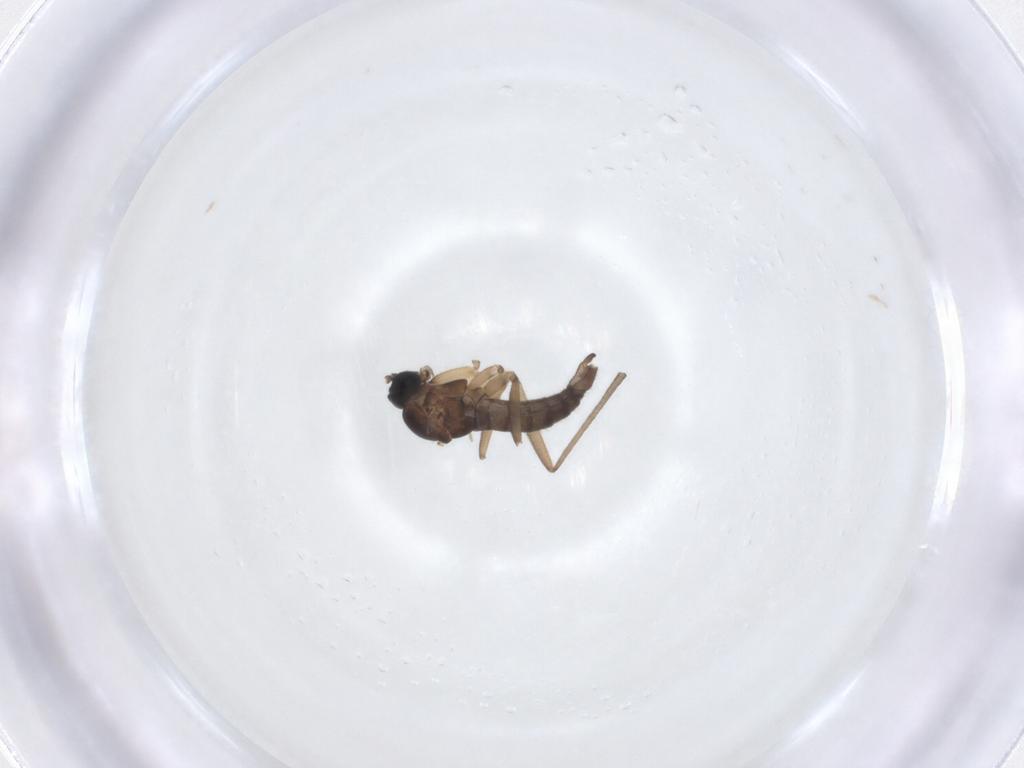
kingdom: Animalia
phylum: Arthropoda
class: Insecta
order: Diptera
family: Sciaridae
